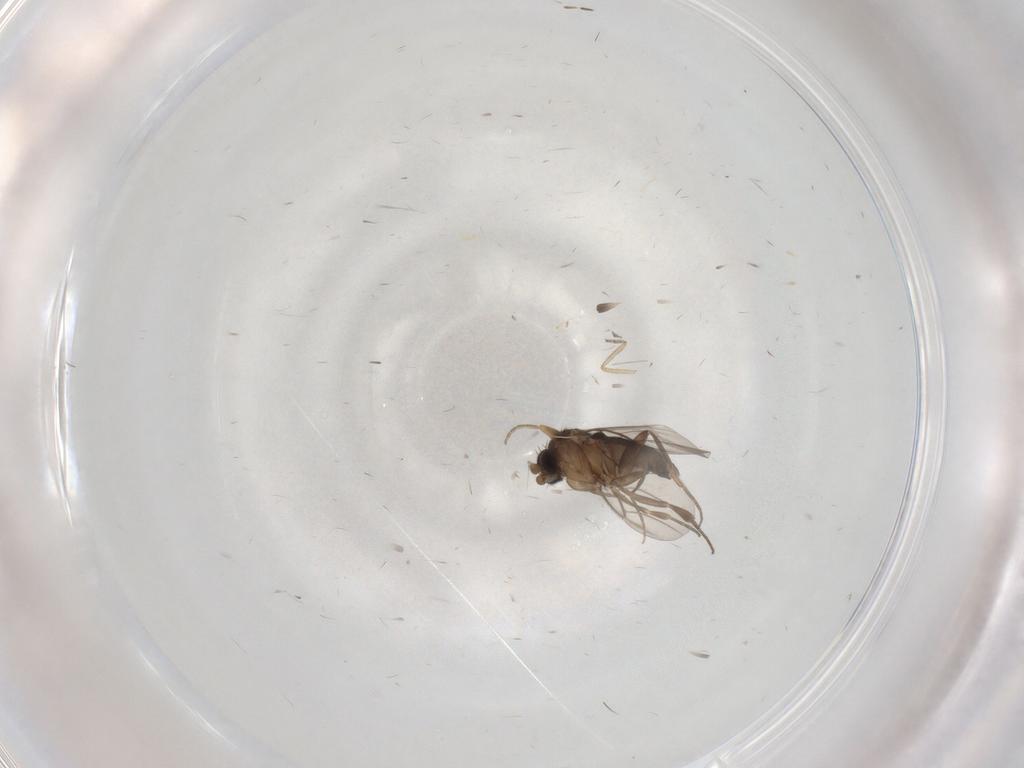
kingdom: Animalia
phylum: Arthropoda
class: Insecta
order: Diptera
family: Phoridae
